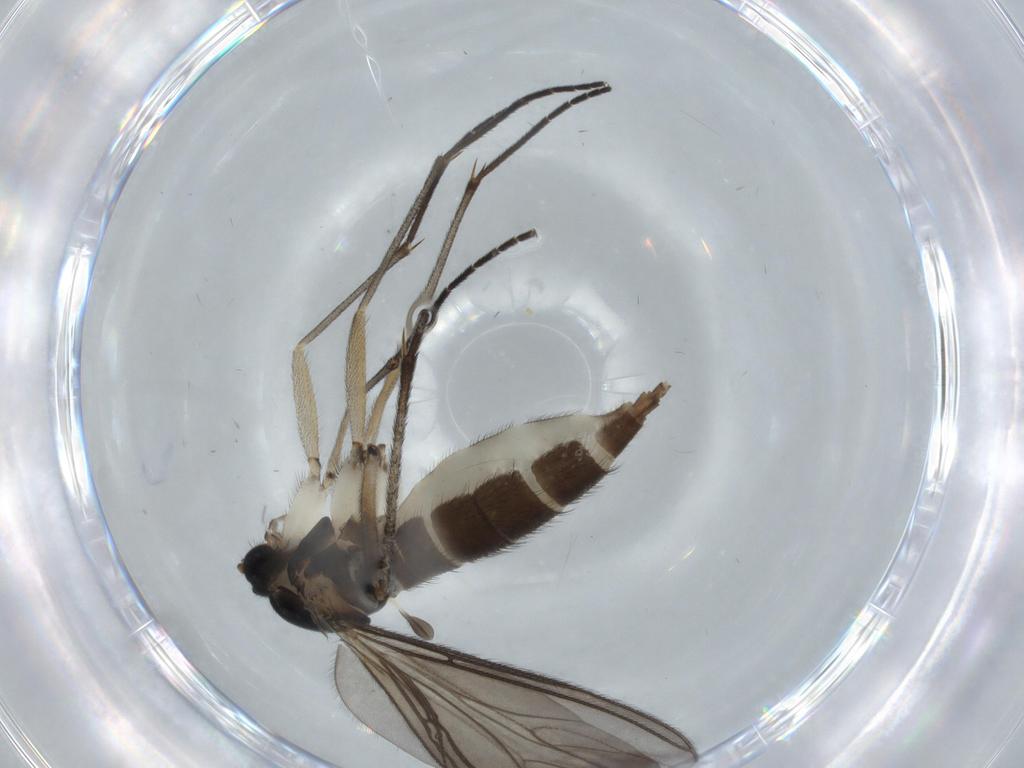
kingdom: Animalia
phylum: Arthropoda
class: Insecta
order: Diptera
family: Sciaridae
